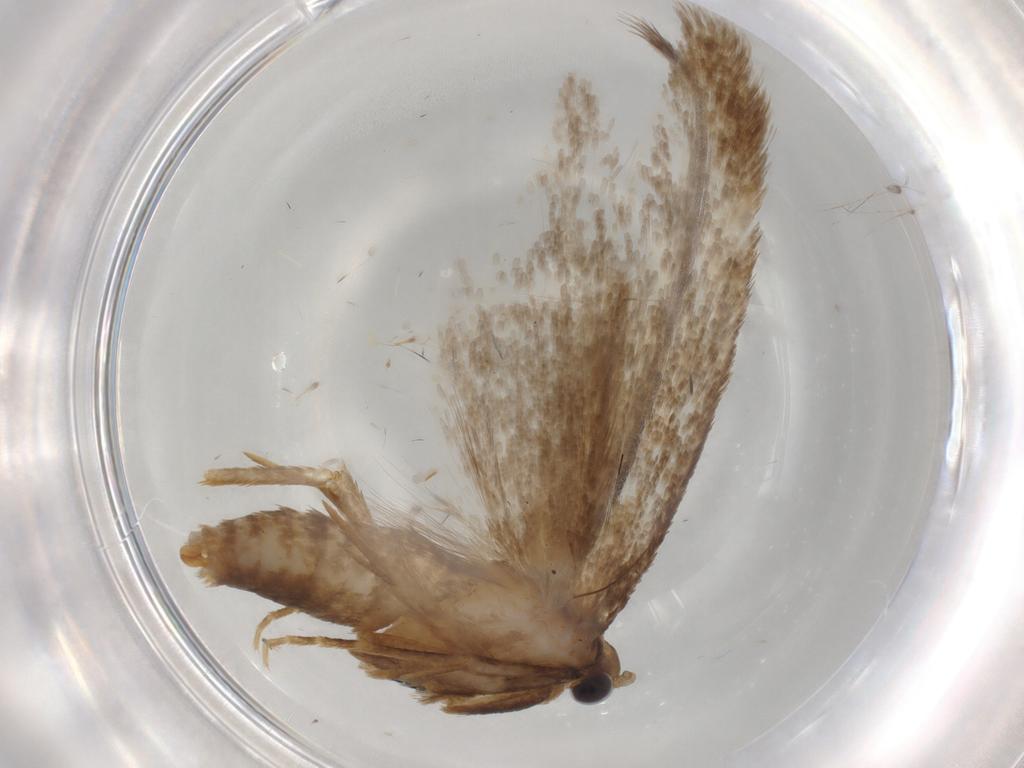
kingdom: Animalia
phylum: Arthropoda
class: Insecta
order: Lepidoptera
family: Tineidae
